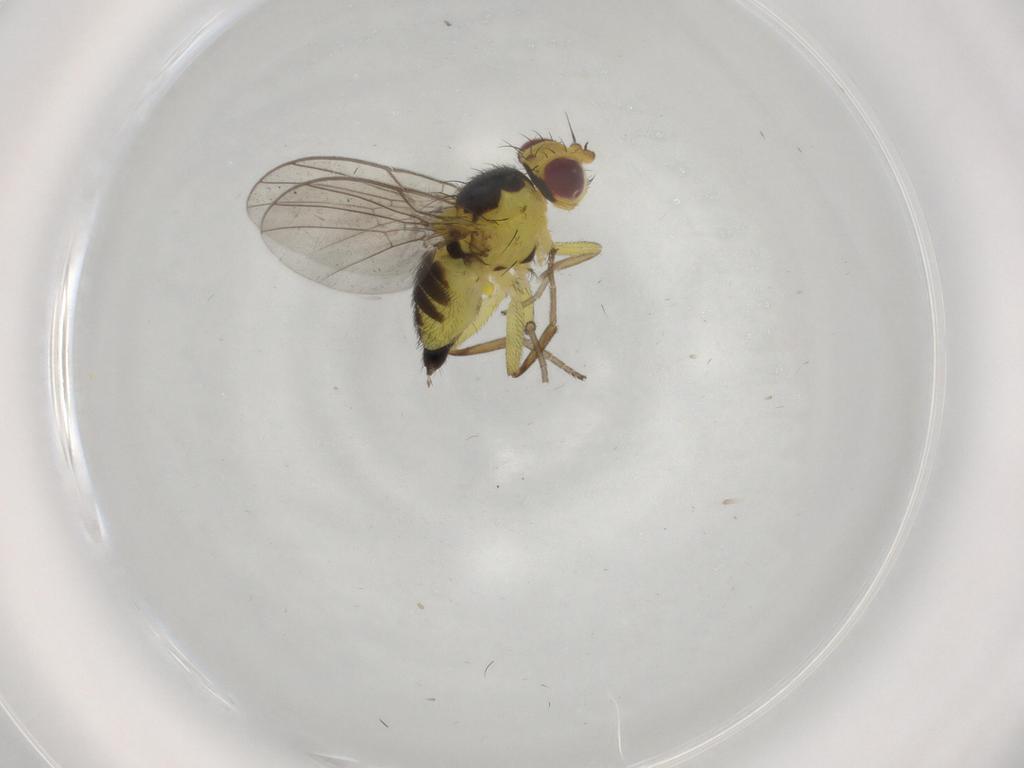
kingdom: Animalia
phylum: Arthropoda
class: Insecta
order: Diptera
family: Agromyzidae
